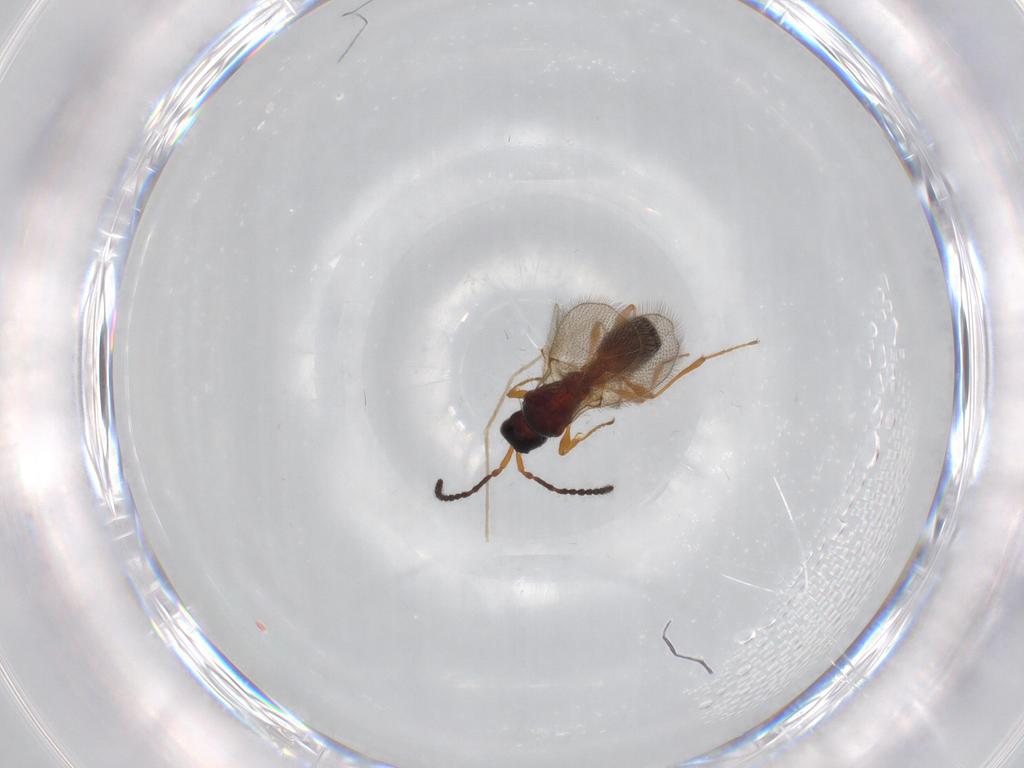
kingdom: Animalia
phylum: Arthropoda
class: Insecta
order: Hymenoptera
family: Diapriidae
